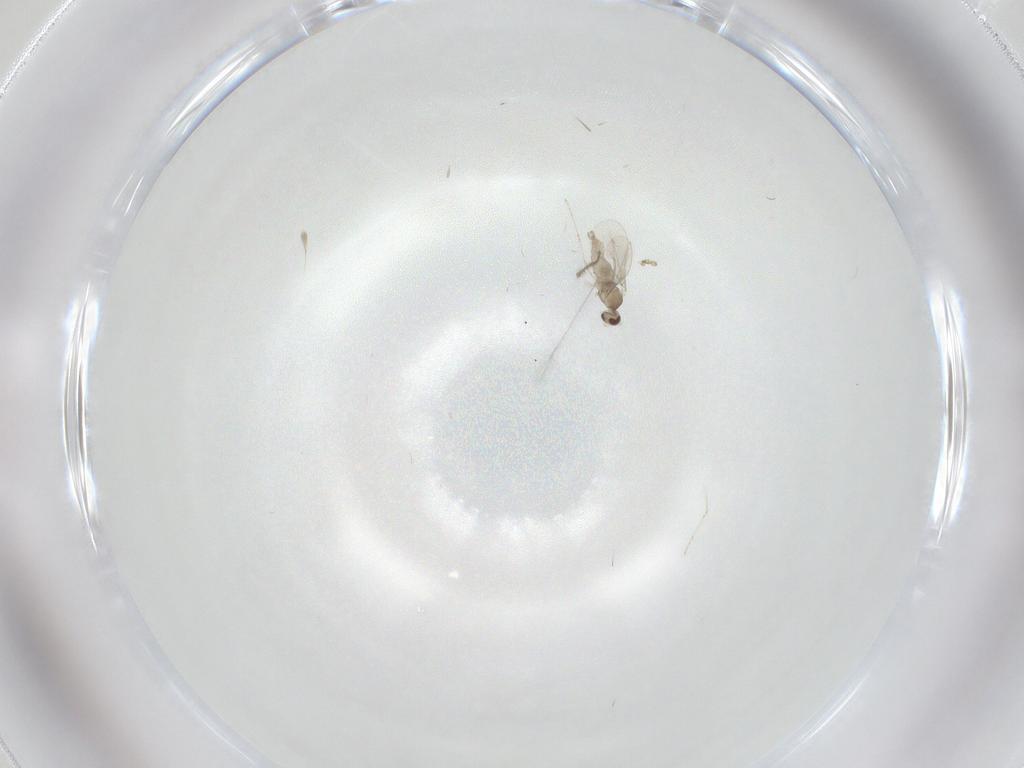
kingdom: Animalia
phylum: Arthropoda
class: Insecta
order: Diptera
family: Cecidomyiidae
